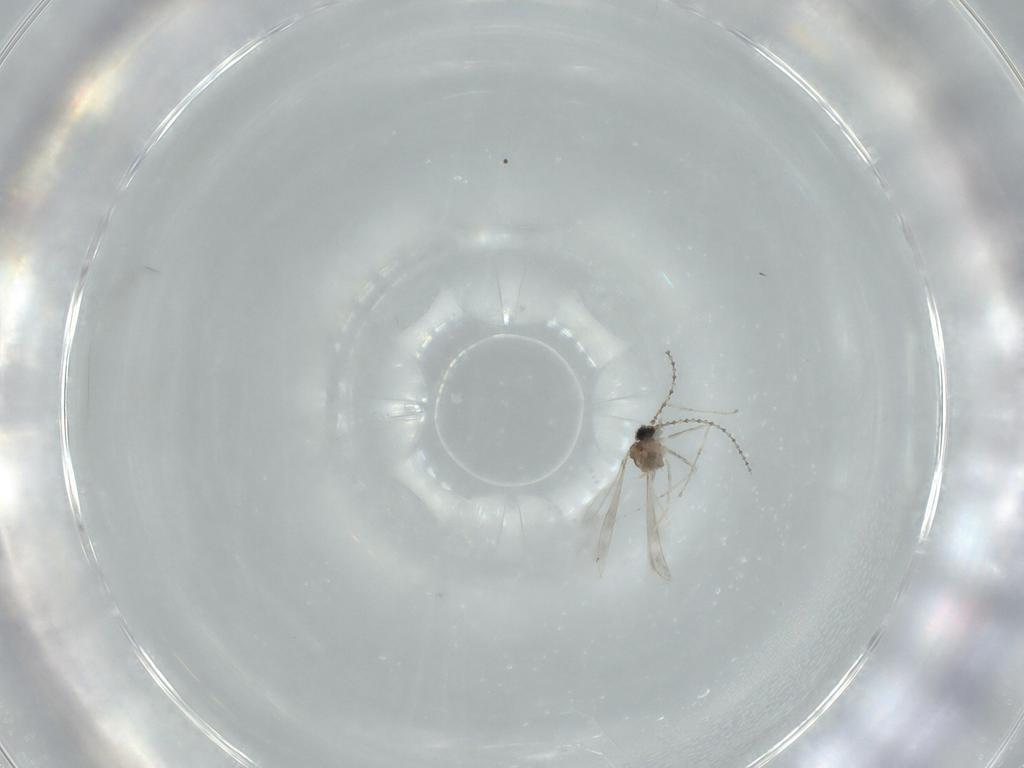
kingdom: Animalia
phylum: Arthropoda
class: Insecta
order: Diptera
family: Cecidomyiidae
